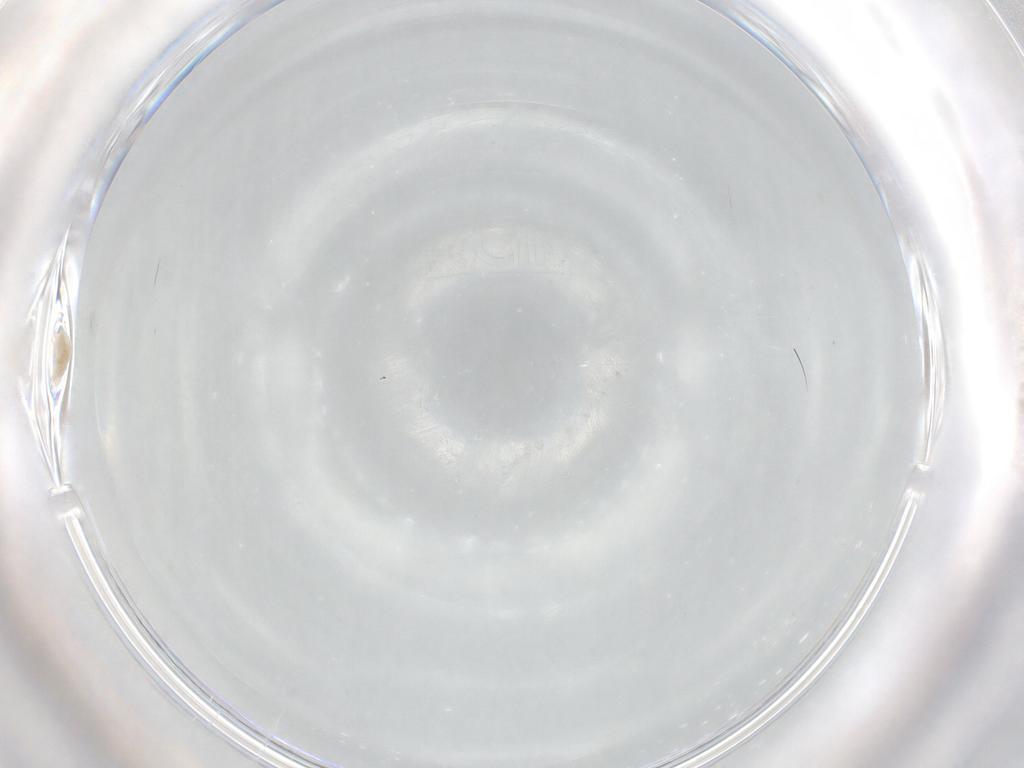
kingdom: Animalia
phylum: Arthropoda
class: Arachnida
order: Trombidiformes
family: Eupodidae
